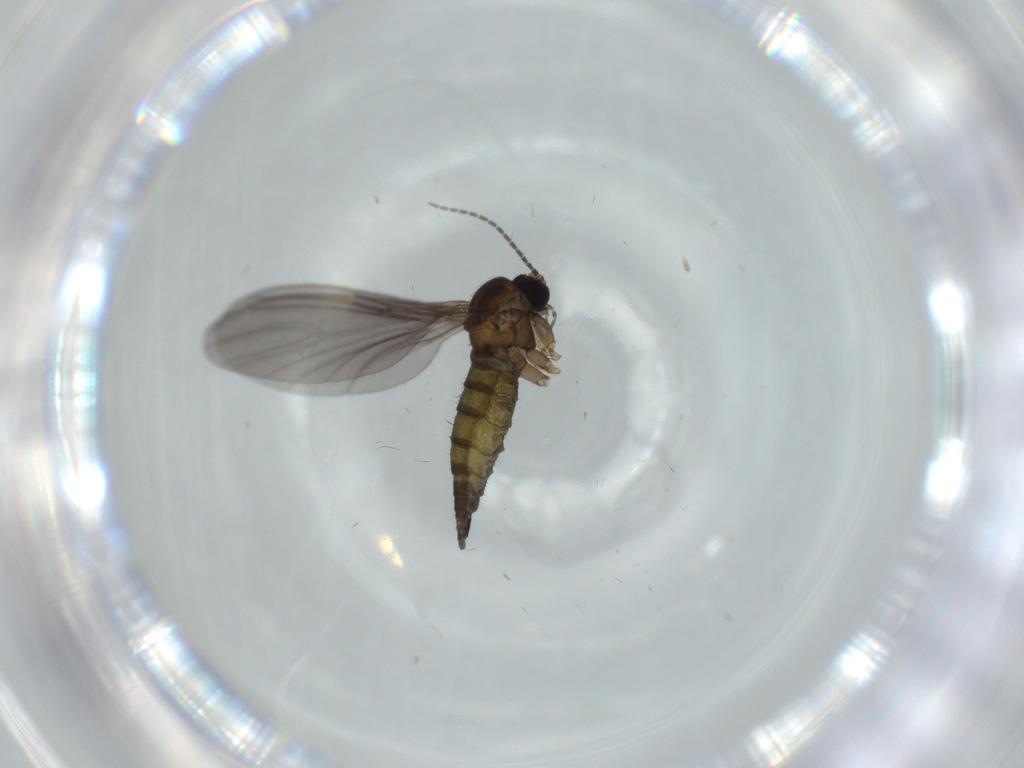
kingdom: Animalia
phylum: Arthropoda
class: Insecta
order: Diptera
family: Sciaridae
